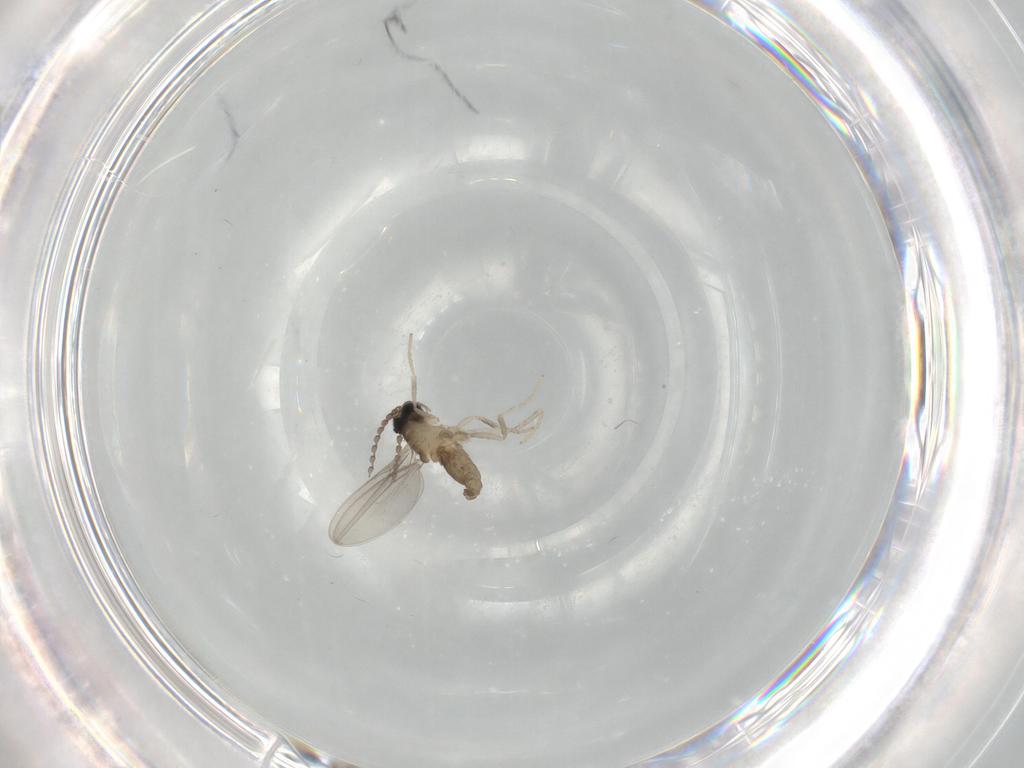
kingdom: Animalia
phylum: Arthropoda
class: Insecta
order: Diptera
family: Cecidomyiidae
